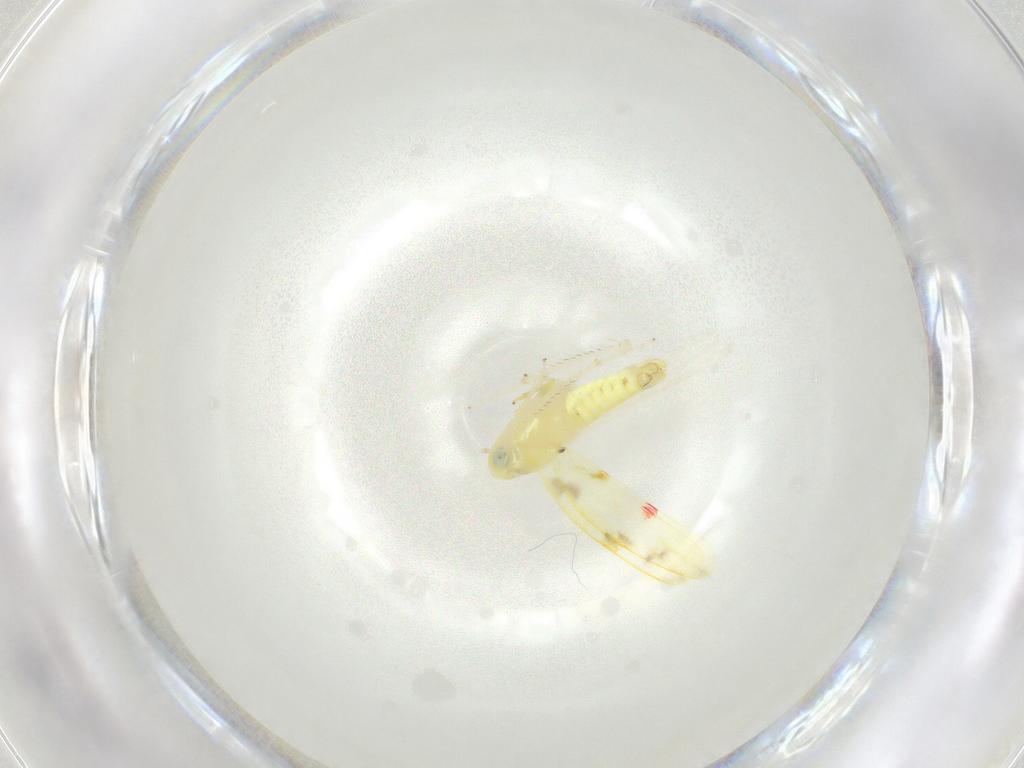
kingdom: Animalia
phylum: Arthropoda
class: Insecta
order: Hemiptera
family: Cicadellidae
